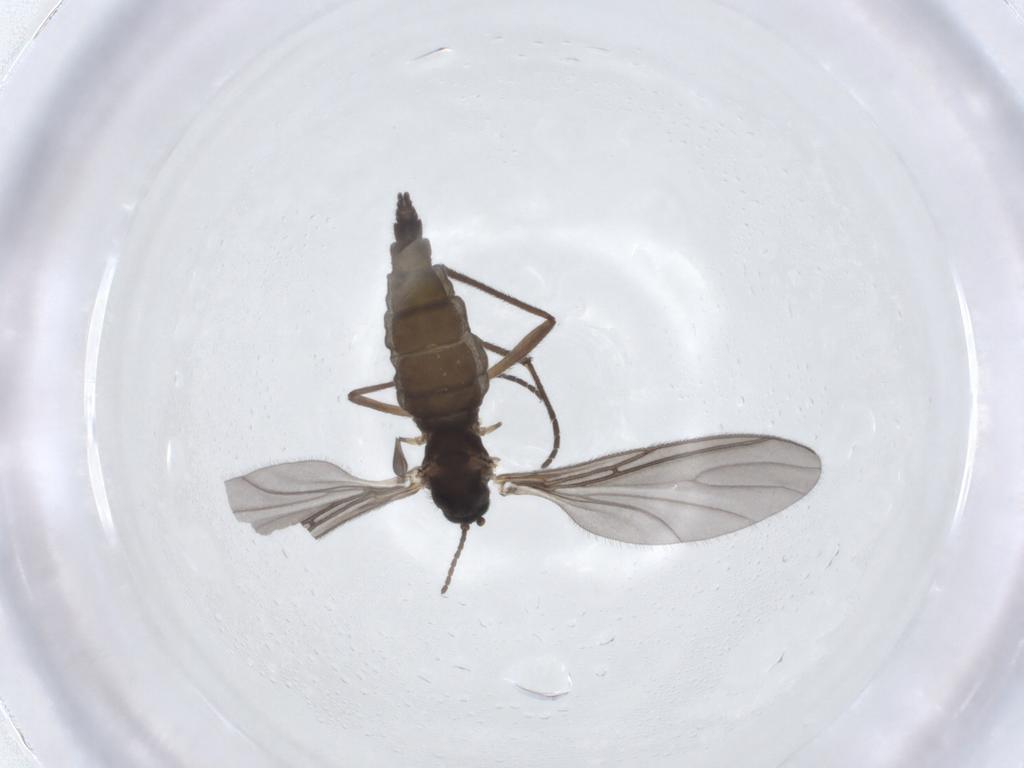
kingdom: Animalia
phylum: Arthropoda
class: Insecta
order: Diptera
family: Sciaridae
